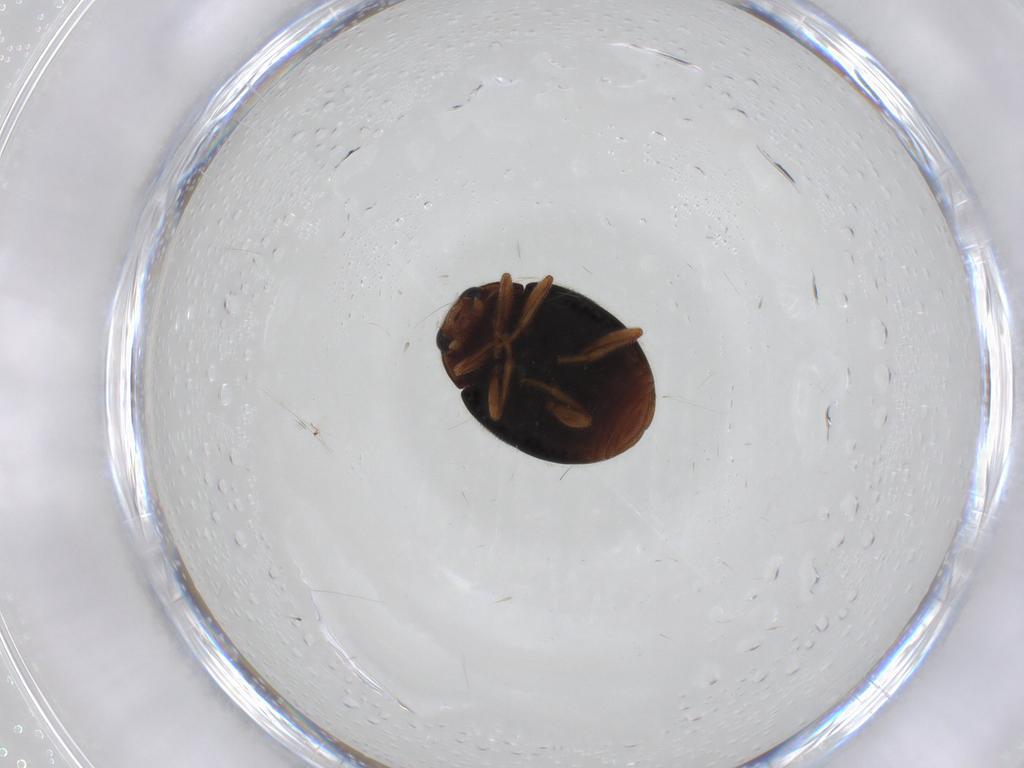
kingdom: Animalia
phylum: Arthropoda
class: Insecta
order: Coleoptera
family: Coccinellidae
